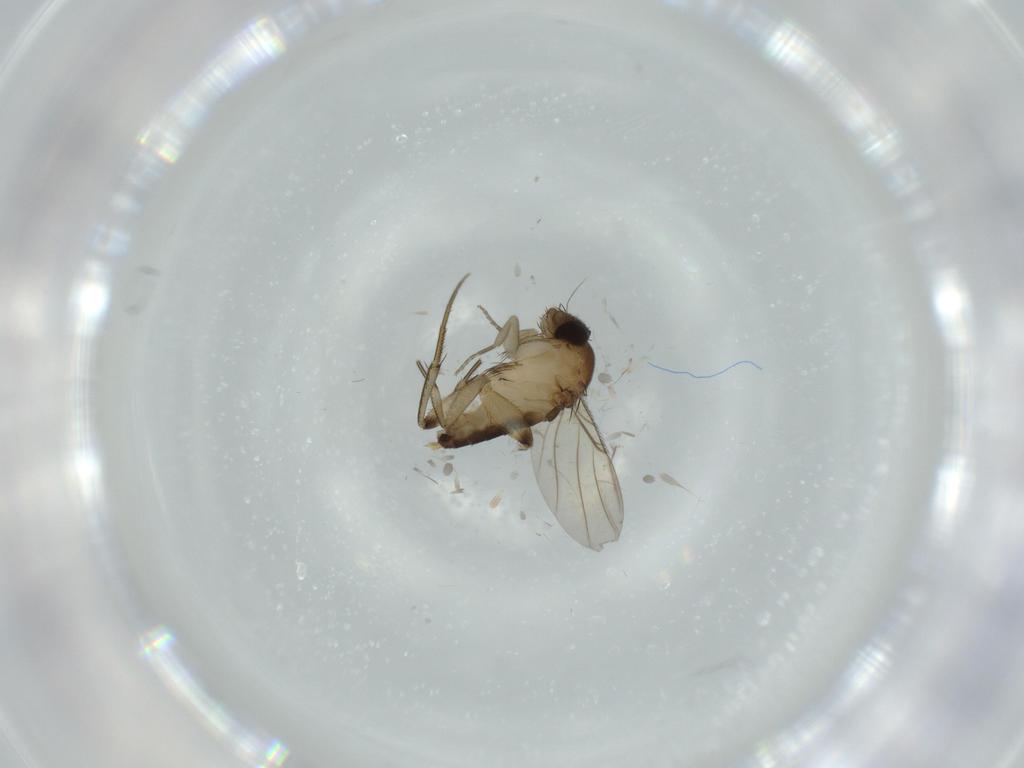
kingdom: Animalia
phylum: Arthropoda
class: Insecta
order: Diptera
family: Phoridae
